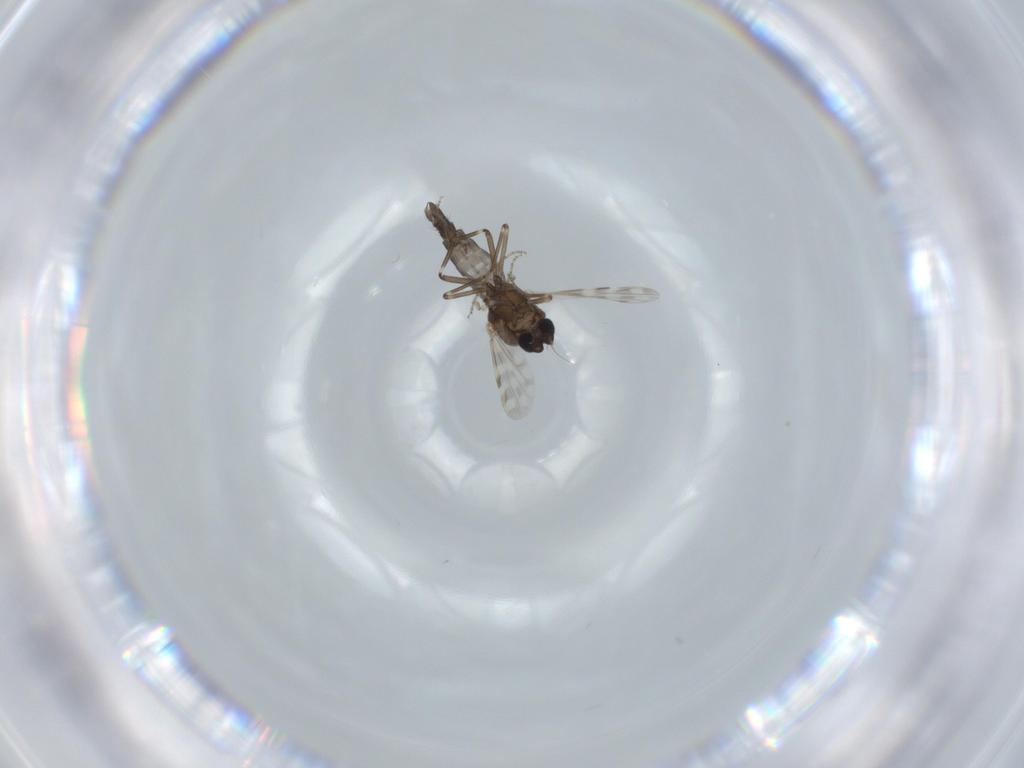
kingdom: Animalia
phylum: Arthropoda
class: Insecta
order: Diptera
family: Ceratopogonidae
